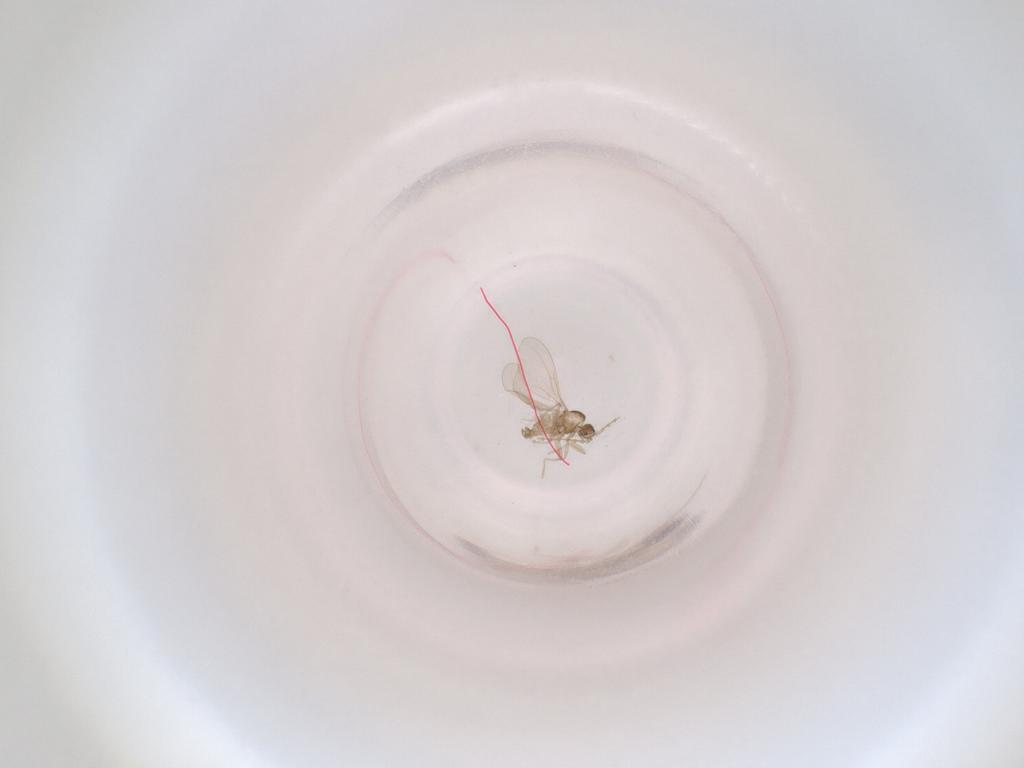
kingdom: Animalia
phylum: Arthropoda
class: Insecta
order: Diptera
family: Cecidomyiidae
